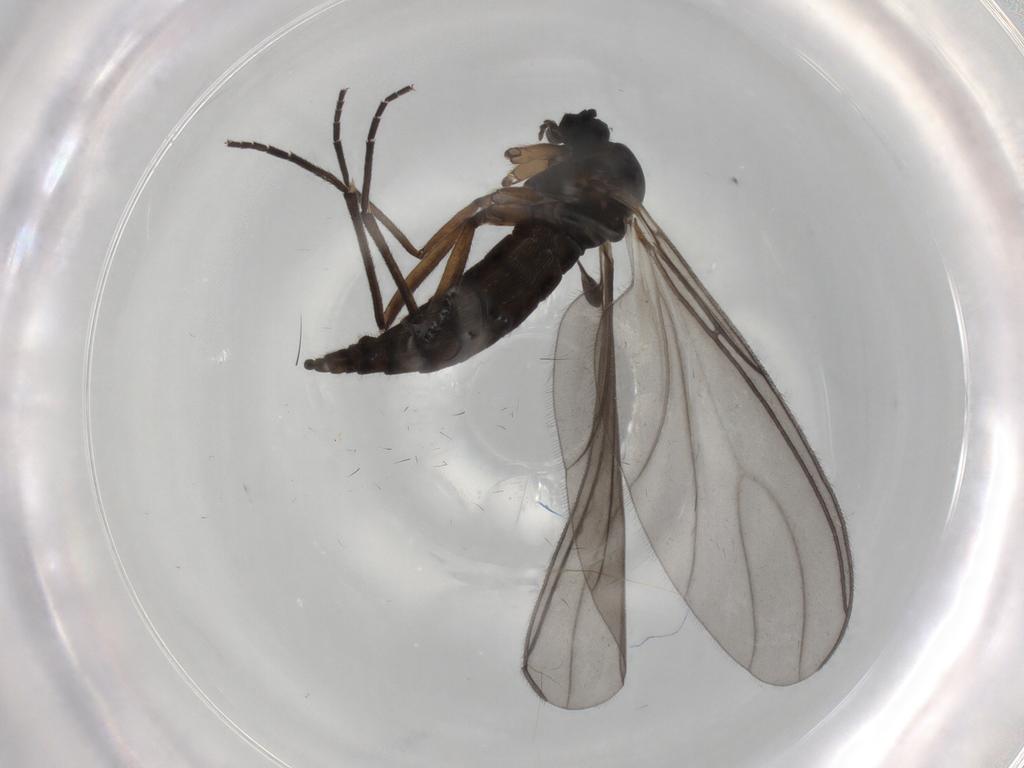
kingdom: Animalia
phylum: Arthropoda
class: Insecta
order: Diptera
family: Sciaridae
